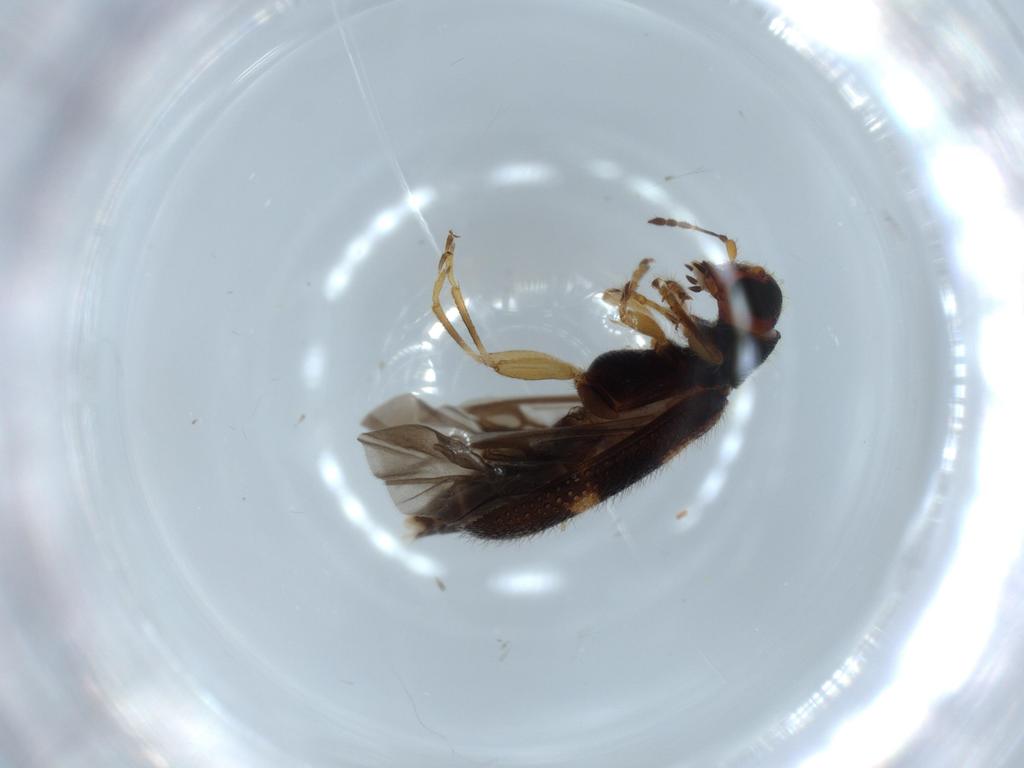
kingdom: Animalia
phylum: Arthropoda
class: Insecta
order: Coleoptera
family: Cleridae
